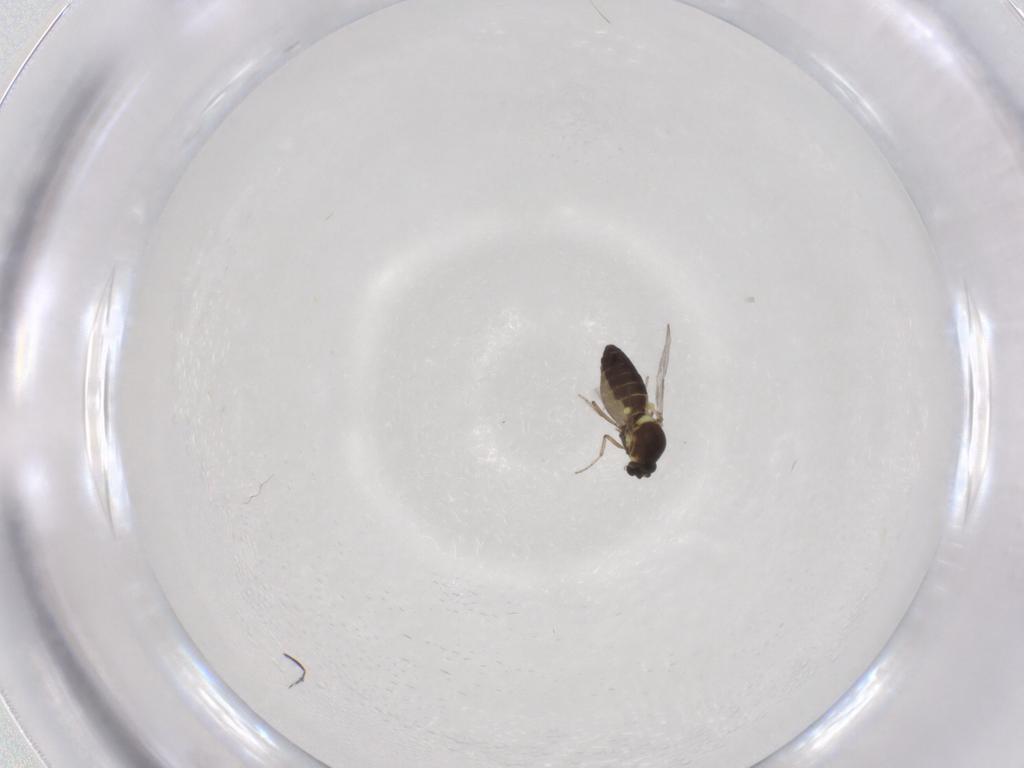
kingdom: Animalia
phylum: Arthropoda
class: Insecta
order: Diptera
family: Ceratopogonidae
